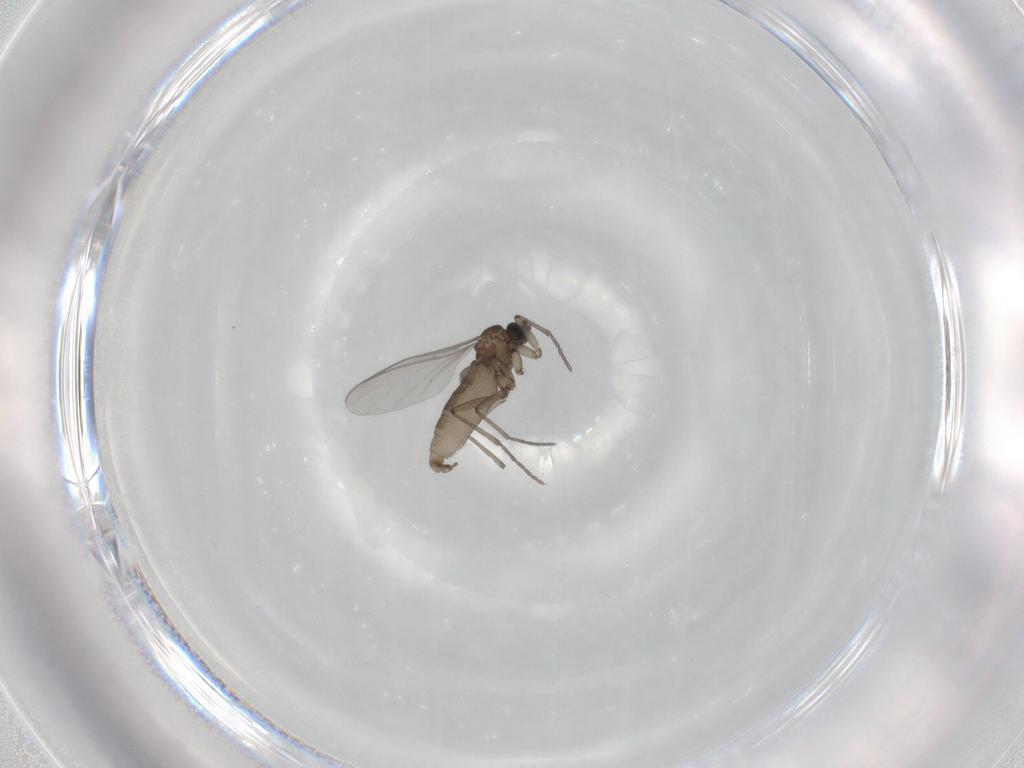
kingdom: Animalia
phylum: Arthropoda
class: Insecta
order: Diptera
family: Sciaridae
